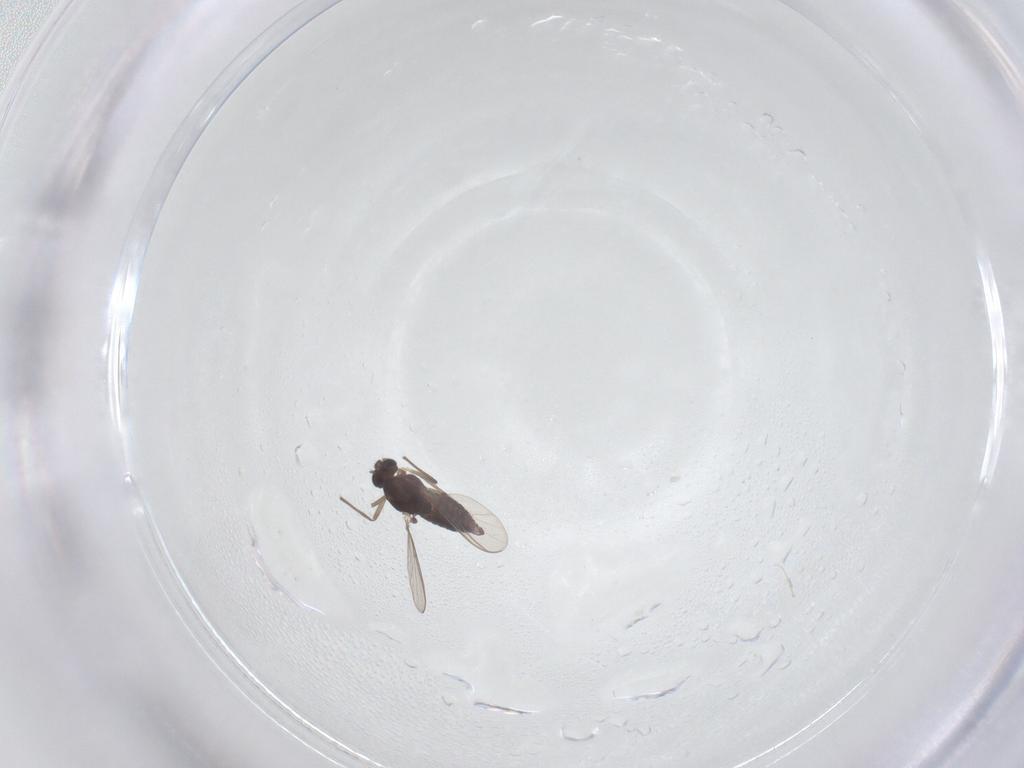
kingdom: Animalia
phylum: Arthropoda
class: Insecta
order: Diptera
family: Chironomidae
